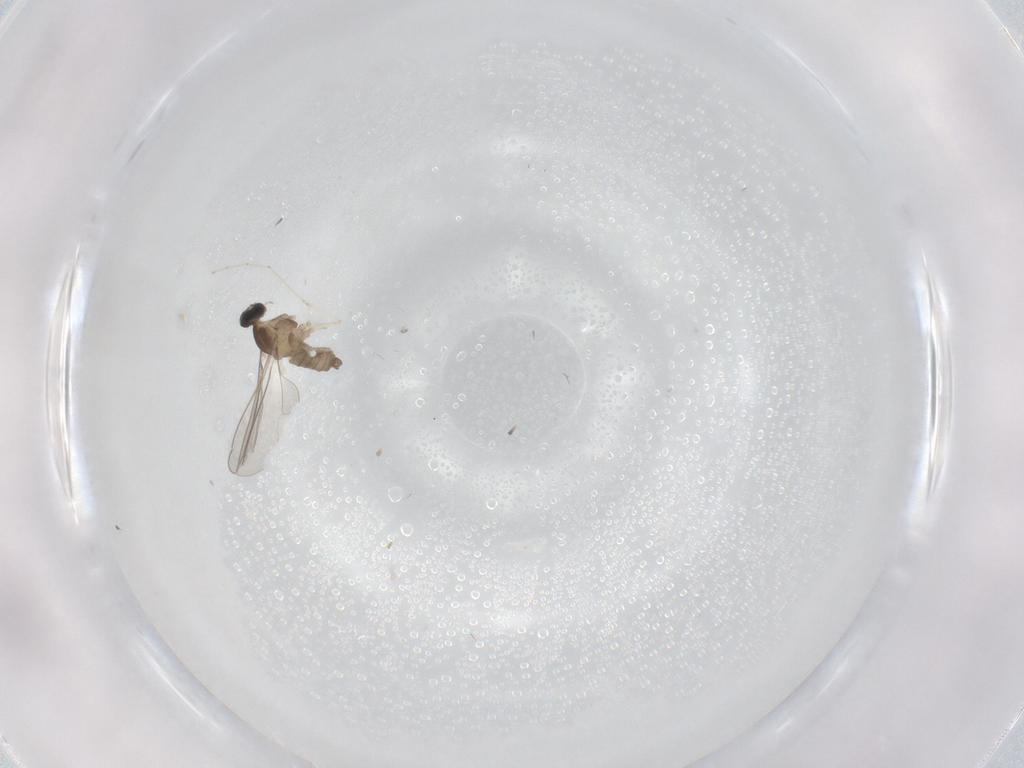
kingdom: Animalia
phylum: Arthropoda
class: Insecta
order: Diptera
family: Cecidomyiidae
